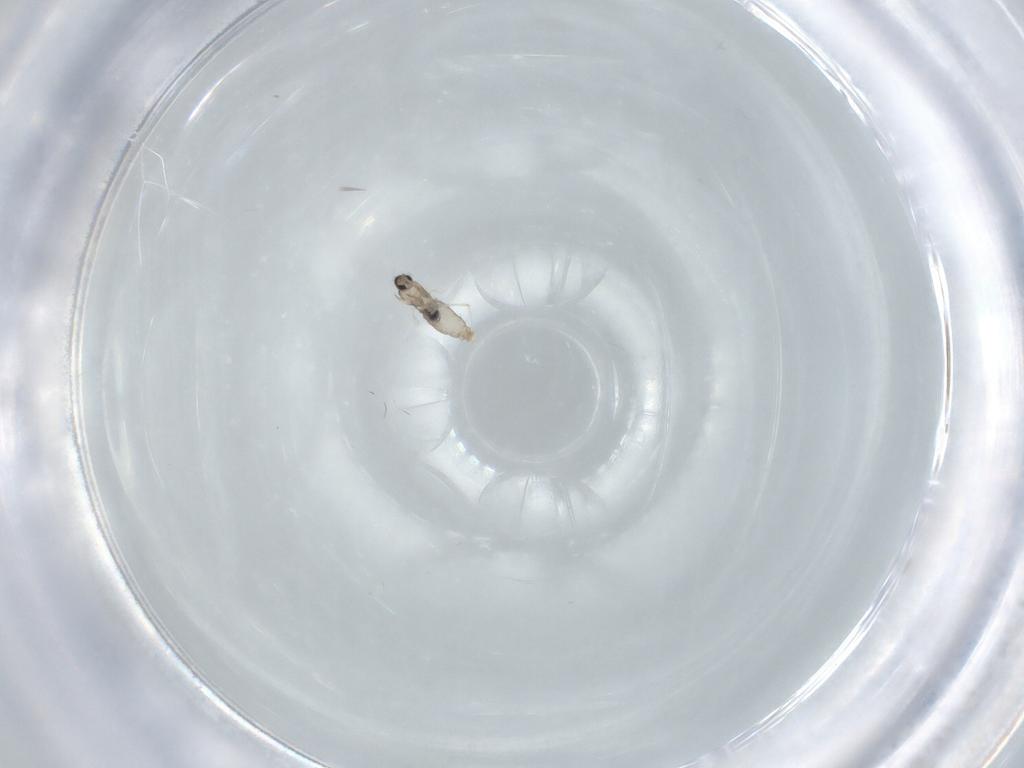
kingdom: Animalia
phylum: Arthropoda
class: Insecta
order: Diptera
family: Cecidomyiidae
